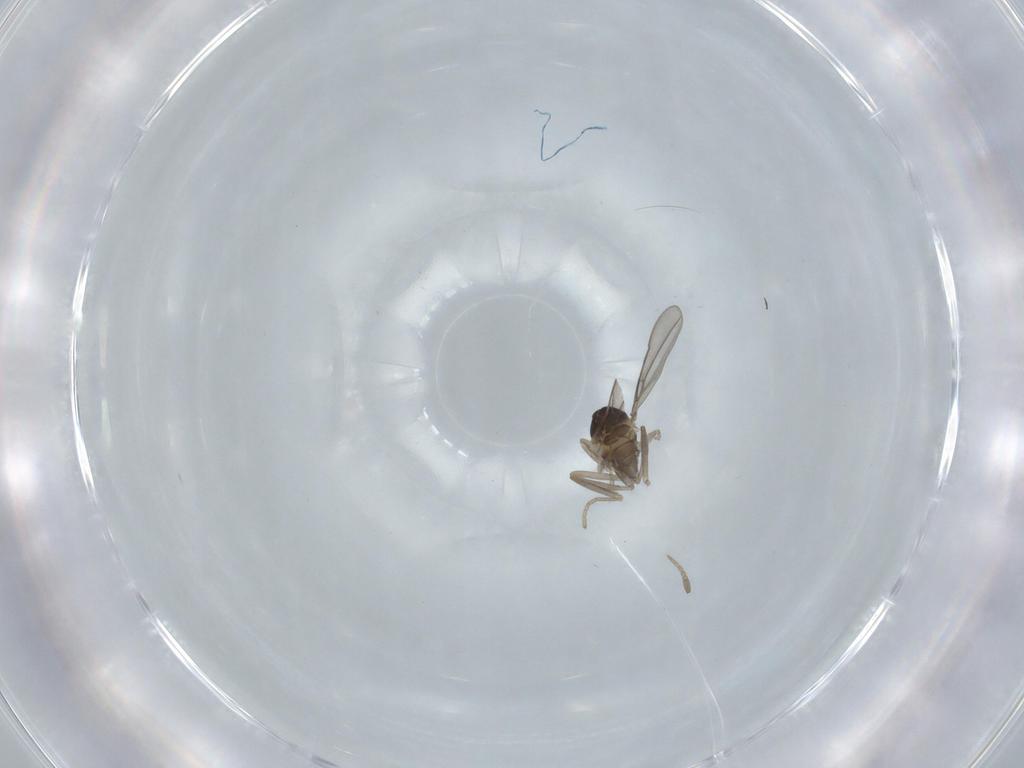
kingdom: Animalia
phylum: Arthropoda
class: Insecta
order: Diptera
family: Cecidomyiidae
